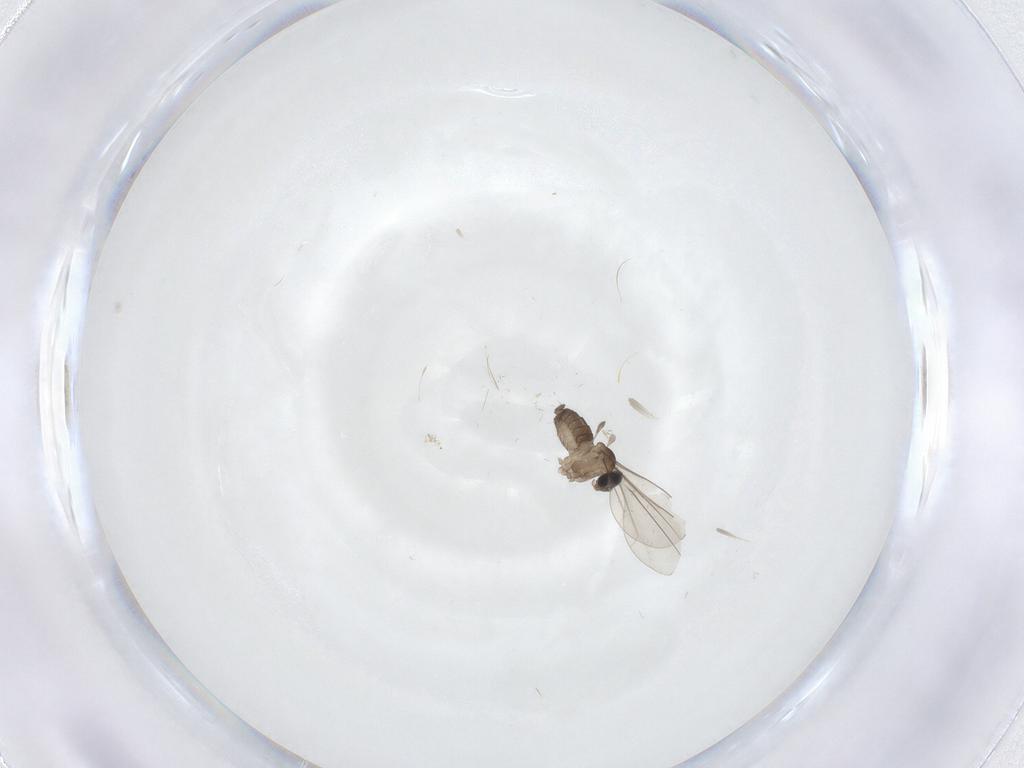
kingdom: Animalia
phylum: Arthropoda
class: Insecta
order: Diptera
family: Cecidomyiidae
